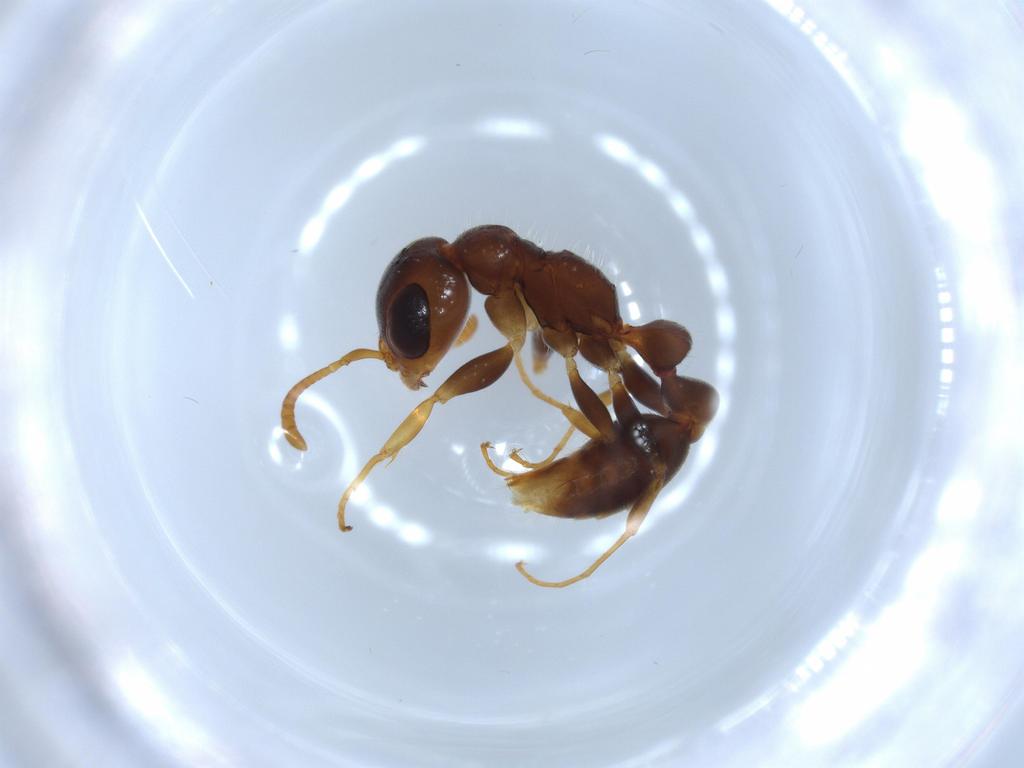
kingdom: Animalia
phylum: Arthropoda
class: Insecta
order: Hymenoptera
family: Formicidae
